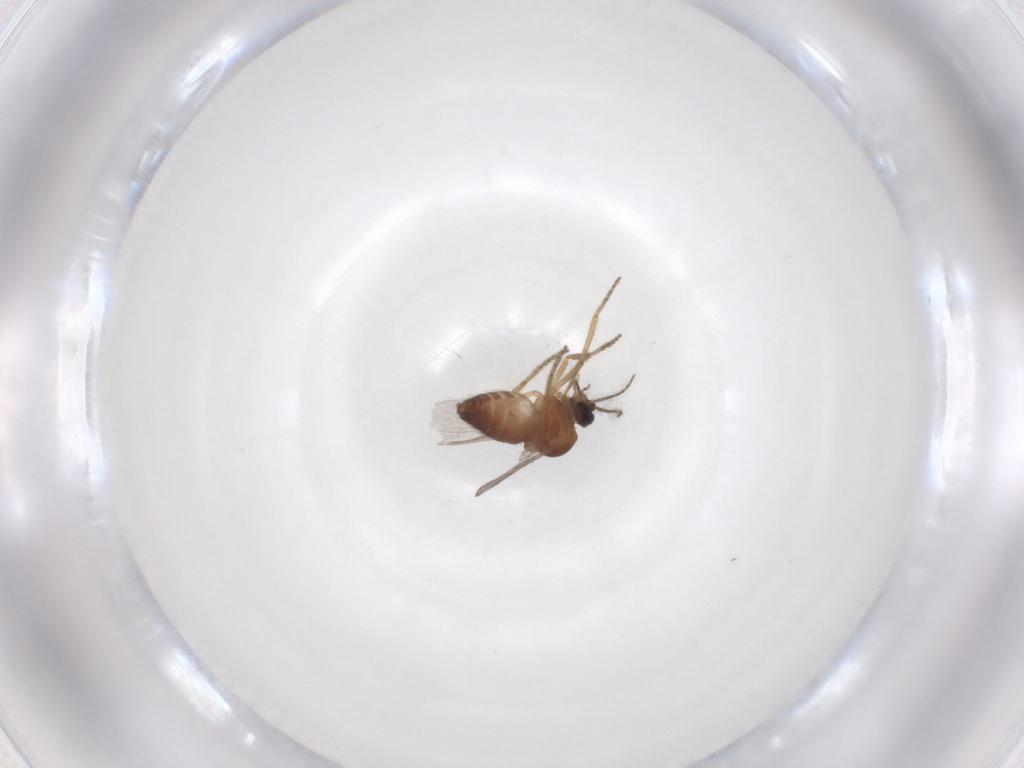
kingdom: Animalia
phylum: Arthropoda
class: Insecta
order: Diptera
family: Ceratopogonidae
